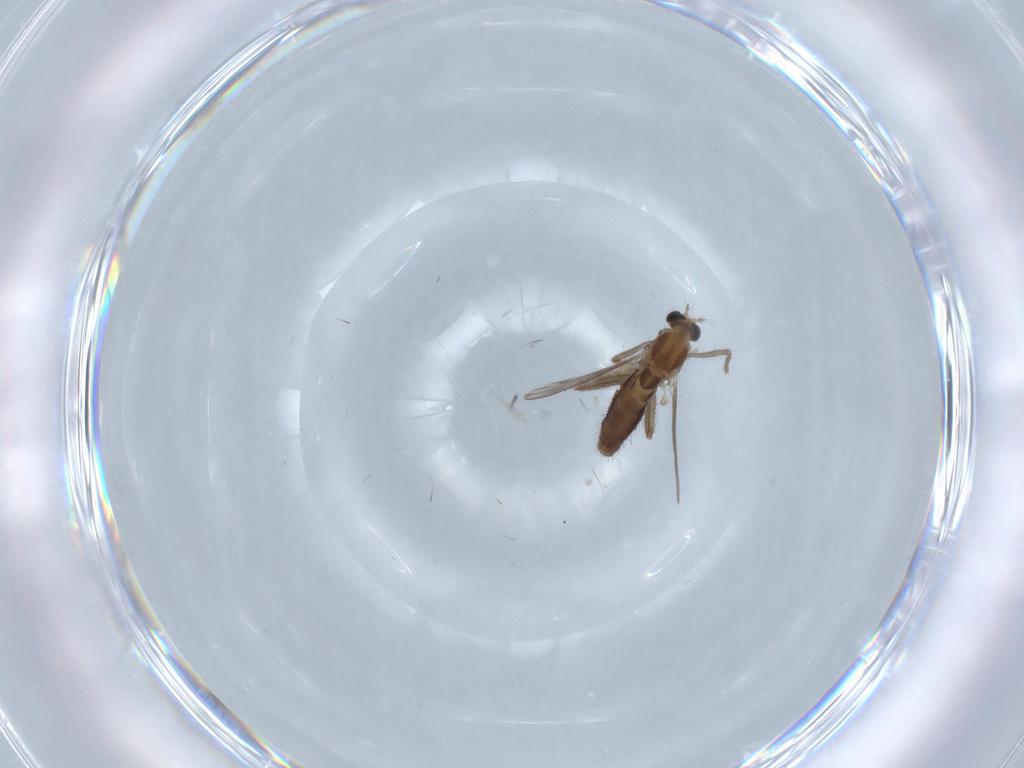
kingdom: Animalia
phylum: Arthropoda
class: Insecta
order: Diptera
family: Chironomidae
